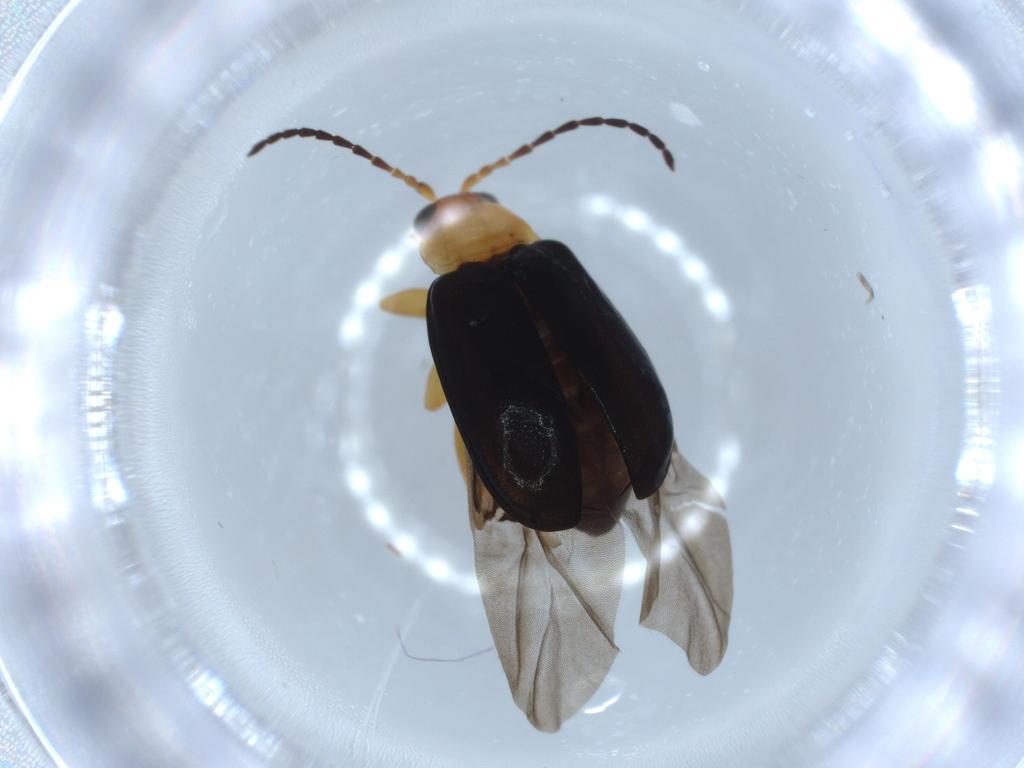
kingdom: Animalia
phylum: Arthropoda
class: Insecta
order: Coleoptera
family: Chrysomelidae
